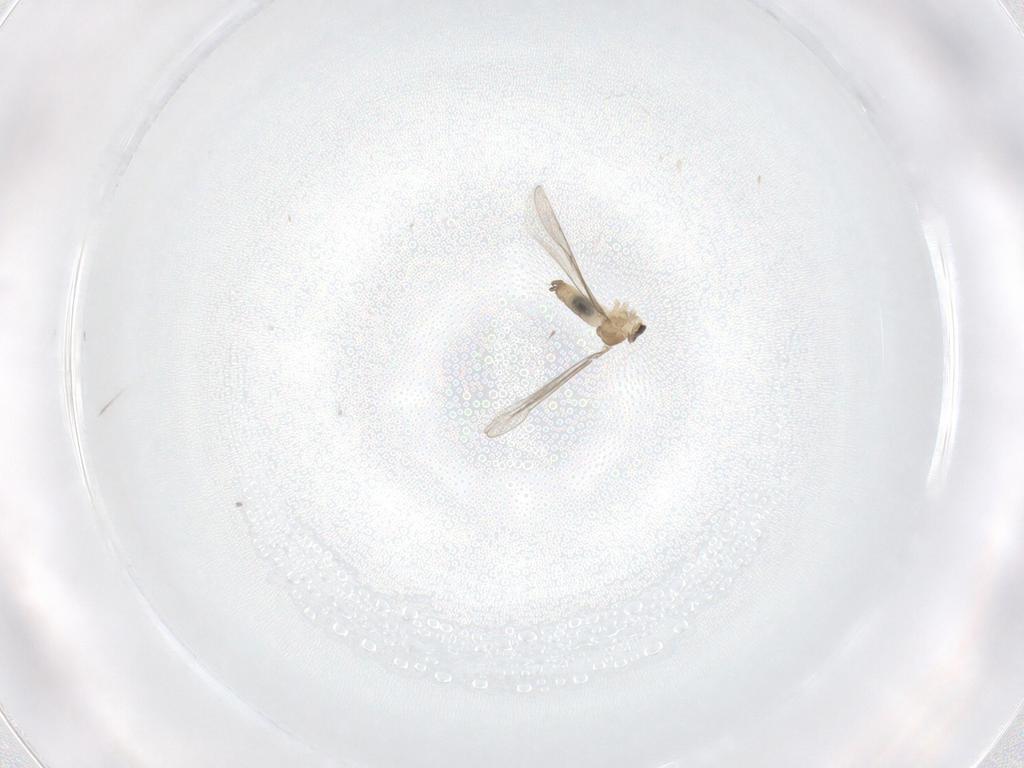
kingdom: Animalia
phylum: Arthropoda
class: Insecta
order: Diptera
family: Cecidomyiidae
